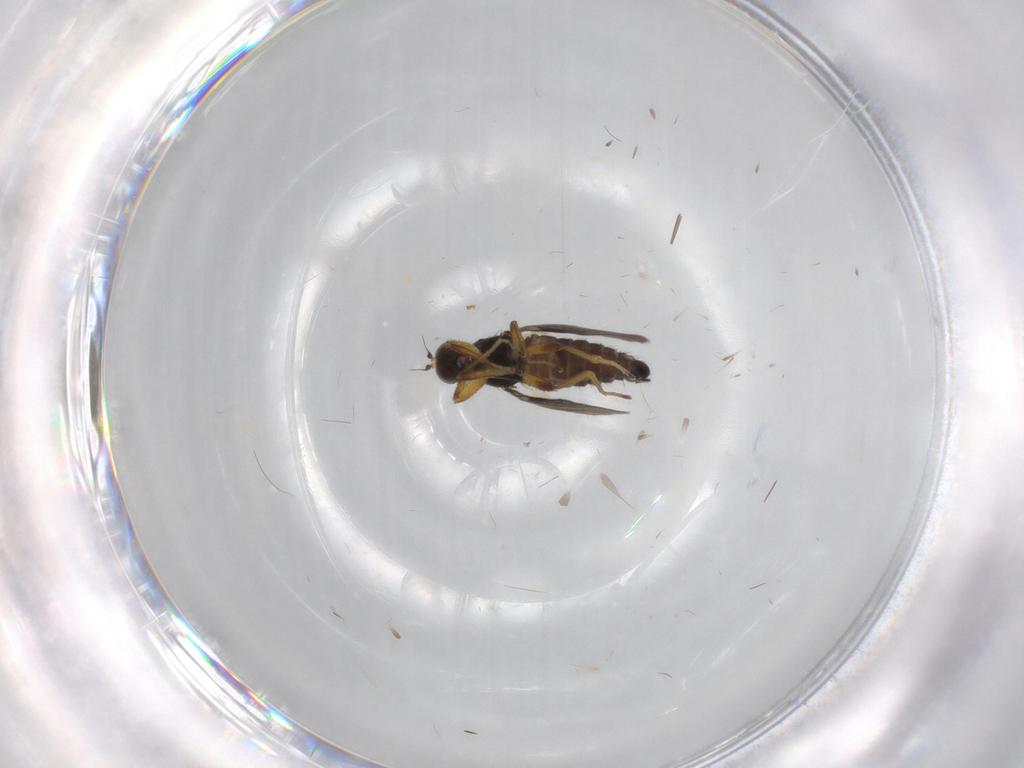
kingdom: Animalia
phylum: Arthropoda
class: Insecta
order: Diptera
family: Hybotidae
